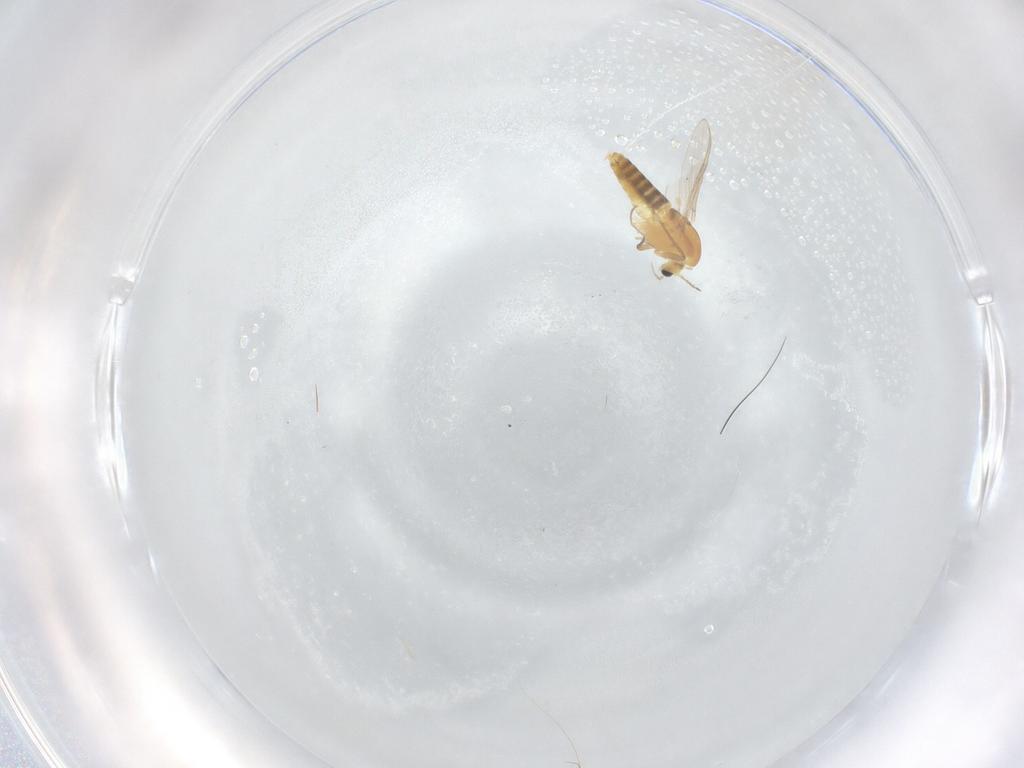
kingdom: Animalia
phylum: Arthropoda
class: Insecta
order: Diptera
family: Chironomidae
